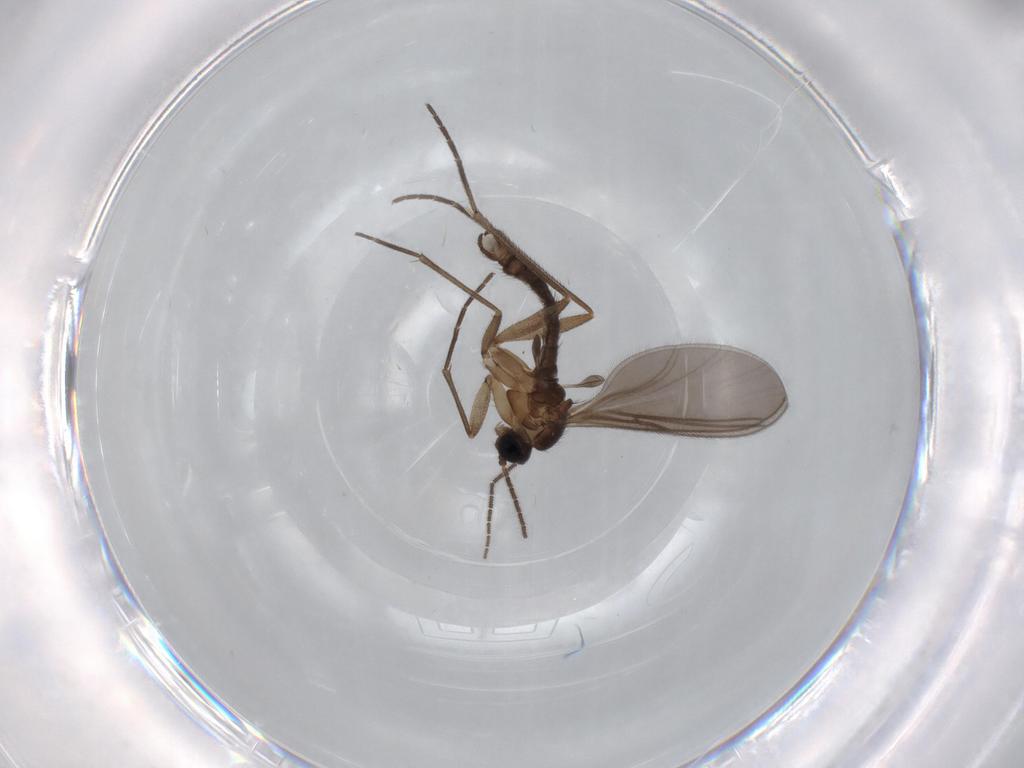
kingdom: Animalia
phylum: Arthropoda
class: Insecta
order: Diptera
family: Sciaridae
